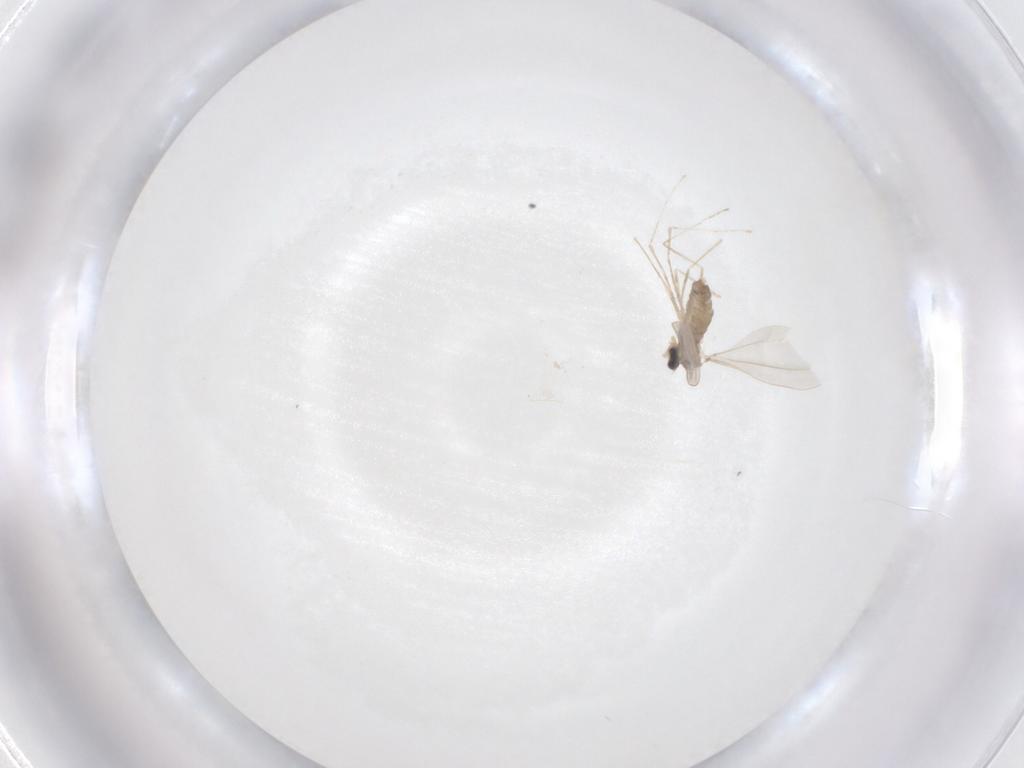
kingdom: Animalia
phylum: Arthropoda
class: Insecta
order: Diptera
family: Cecidomyiidae
